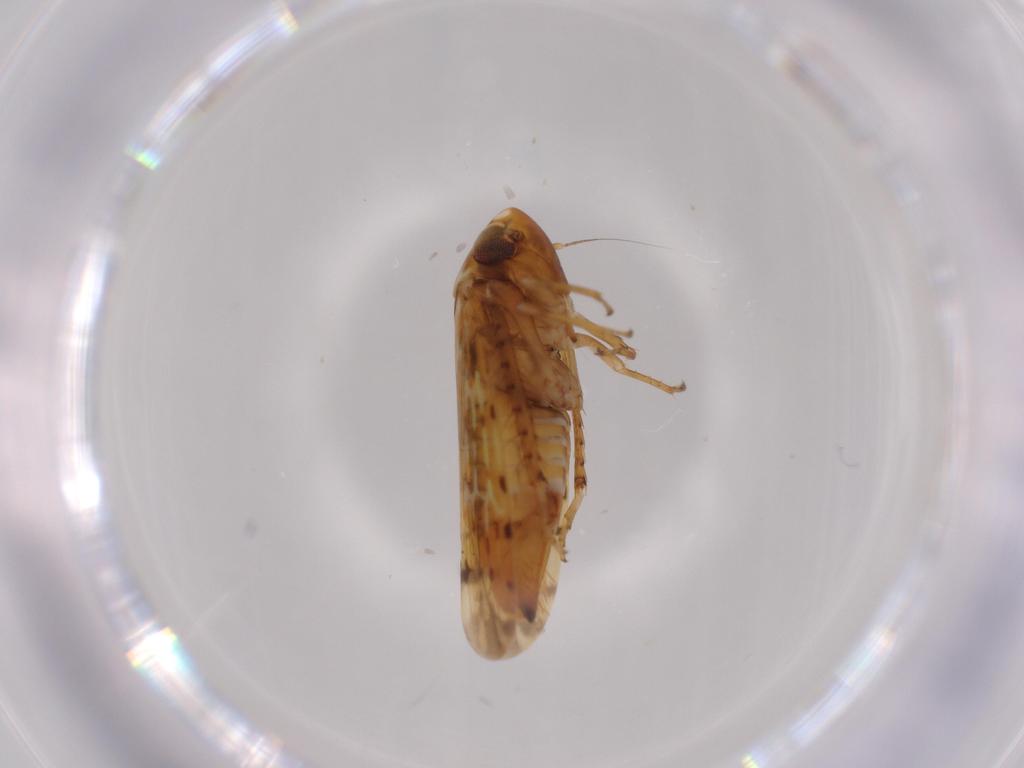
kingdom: Animalia
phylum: Arthropoda
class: Insecta
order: Hemiptera
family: Cicadellidae
